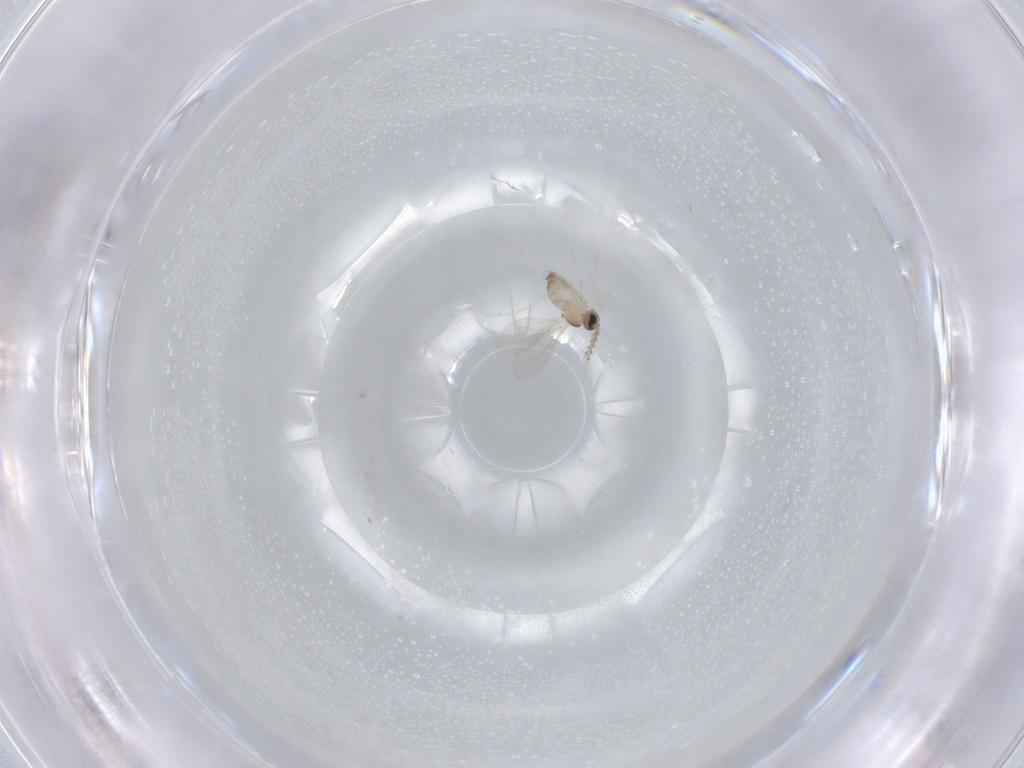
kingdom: Animalia
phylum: Arthropoda
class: Insecta
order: Diptera
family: Cecidomyiidae
